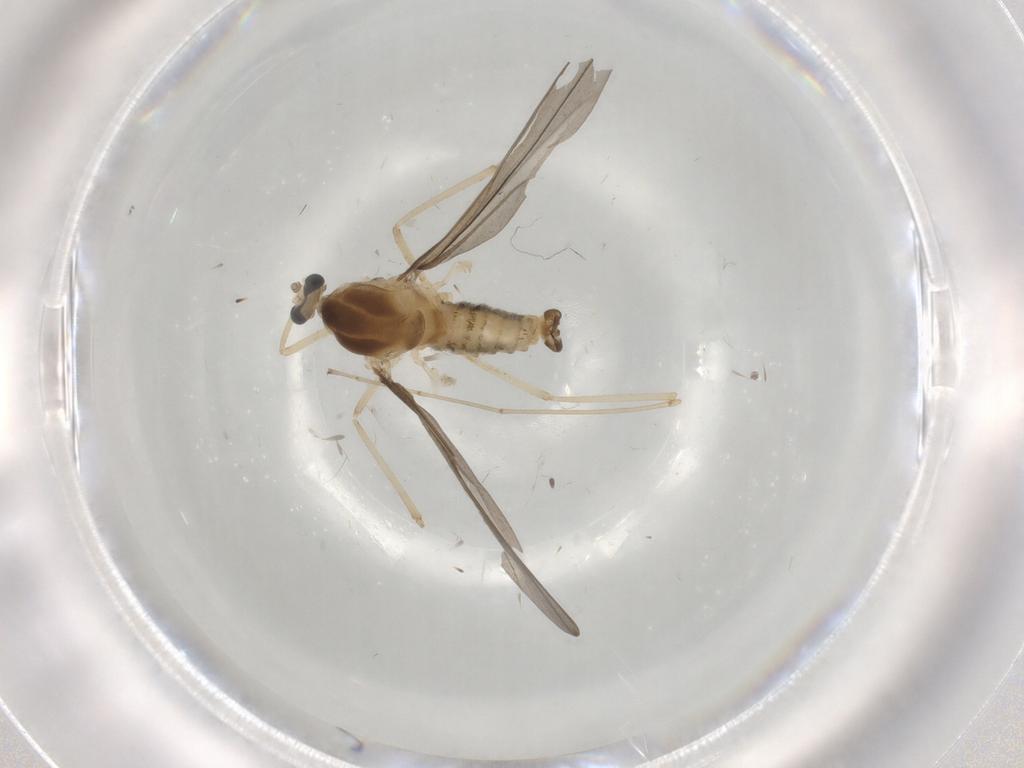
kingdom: Animalia
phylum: Arthropoda
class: Insecta
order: Diptera
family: Cecidomyiidae
